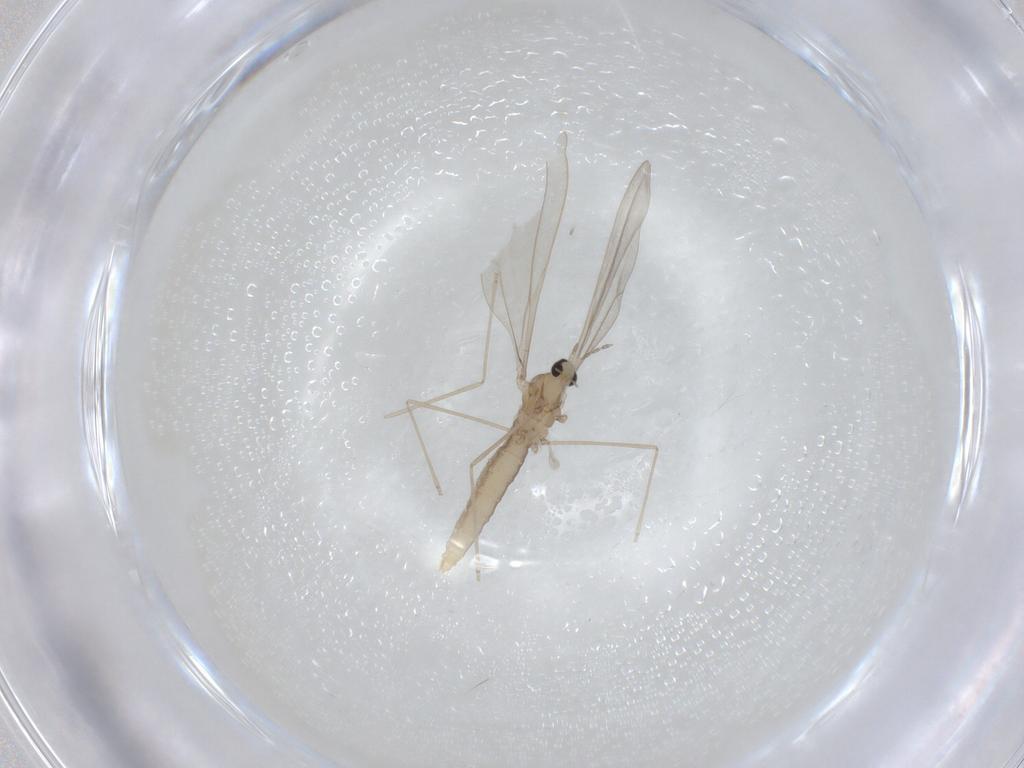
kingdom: Animalia
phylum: Arthropoda
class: Insecta
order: Diptera
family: Cecidomyiidae
